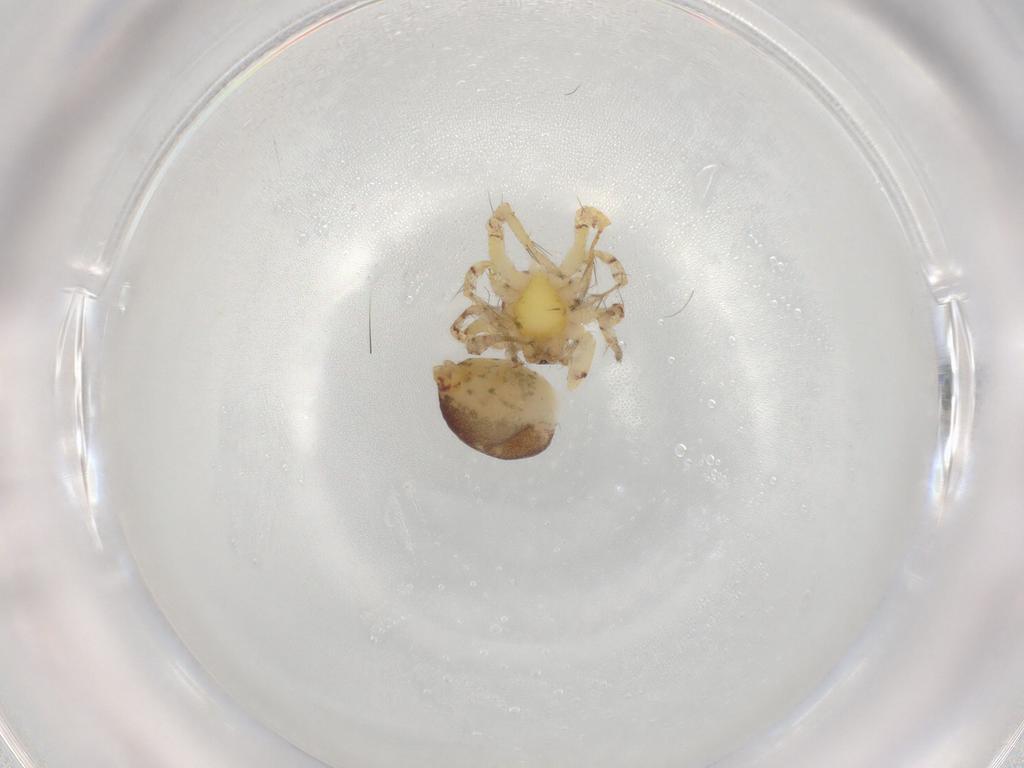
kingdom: Animalia
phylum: Arthropoda
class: Arachnida
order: Araneae
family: Anyphaenidae
